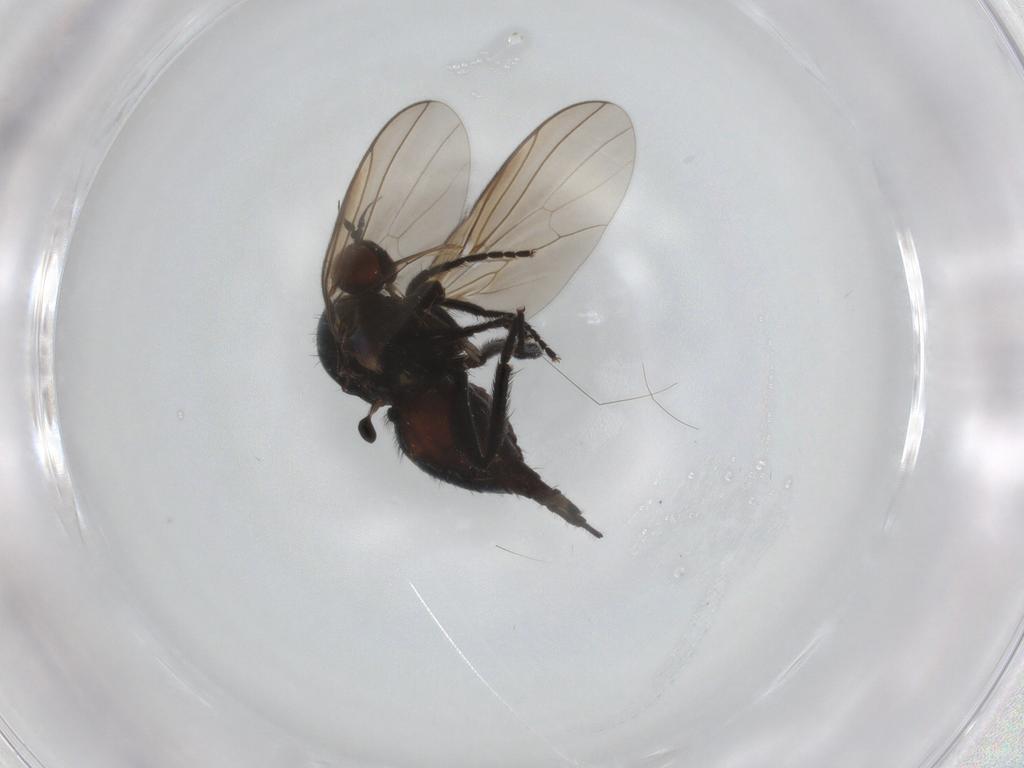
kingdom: Animalia
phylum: Arthropoda
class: Insecta
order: Diptera
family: Empididae
